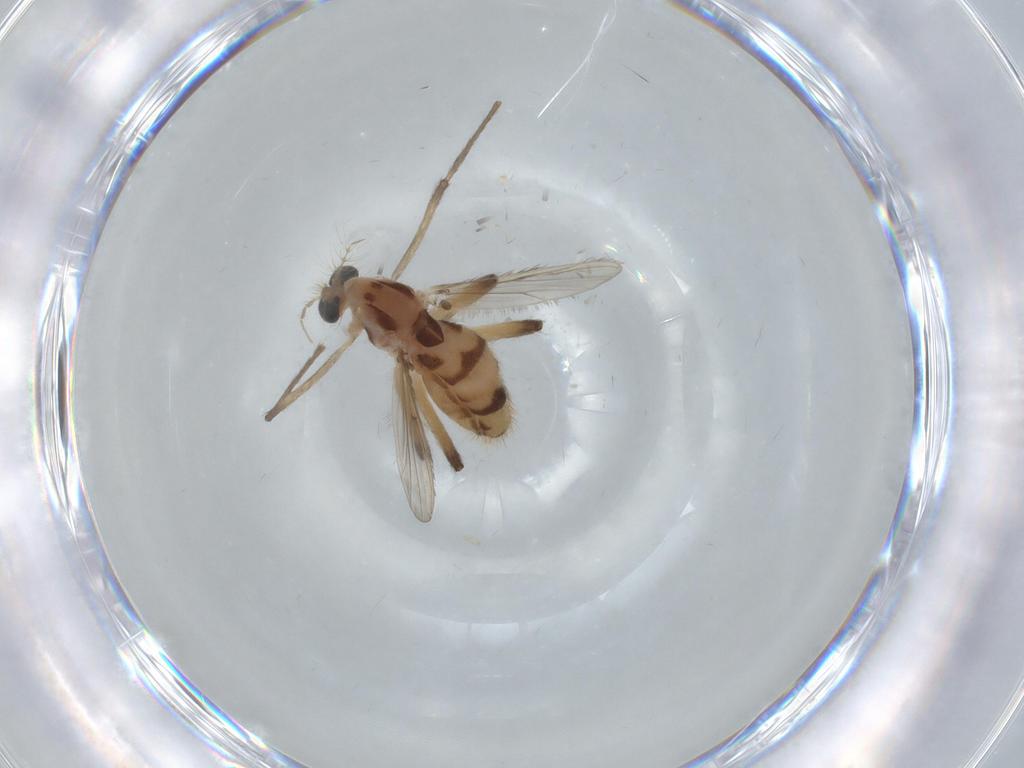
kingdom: Animalia
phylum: Arthropoda
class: Insecta
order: Diptera
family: Chironomidae
